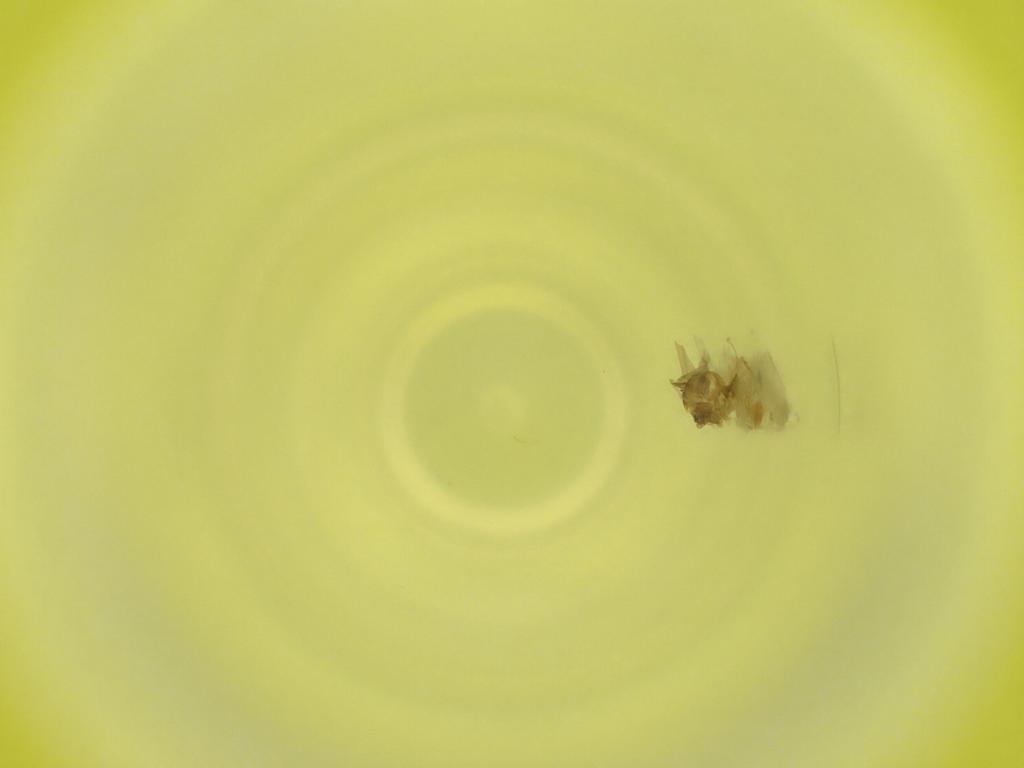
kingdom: Animalia
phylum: Arthropoda
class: Insecta
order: Diptera
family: Cecidomyiidae
